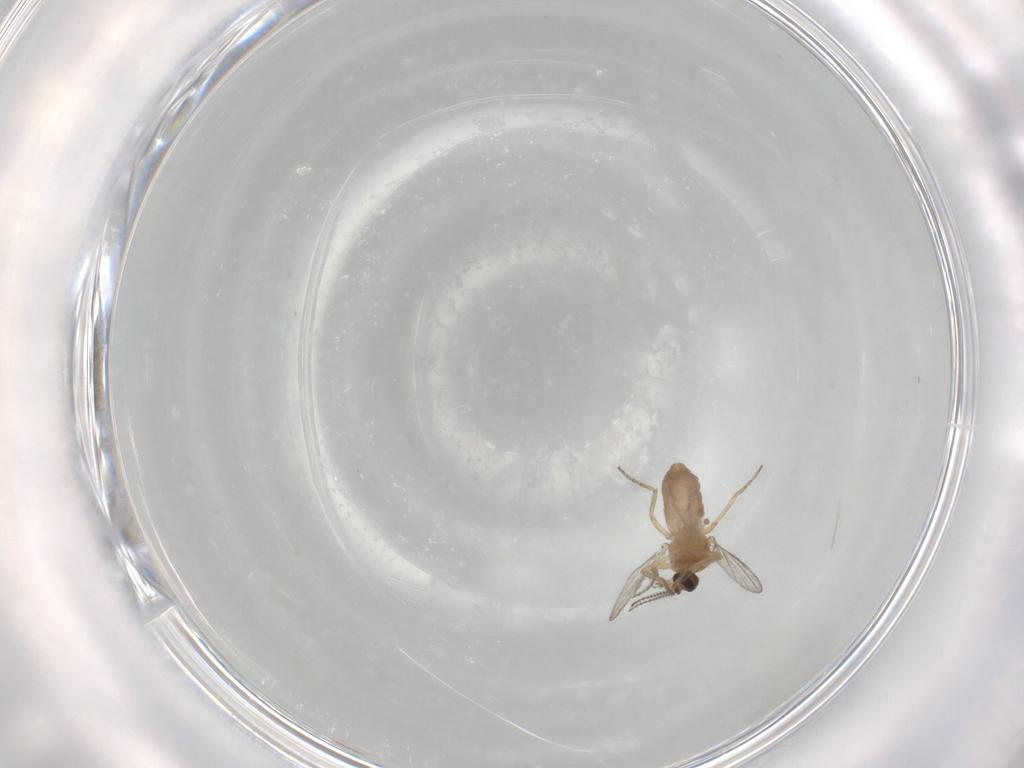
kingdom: Animalia
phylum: Arthropoda
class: Insecta
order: Diptera
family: Ceratopogonidae
